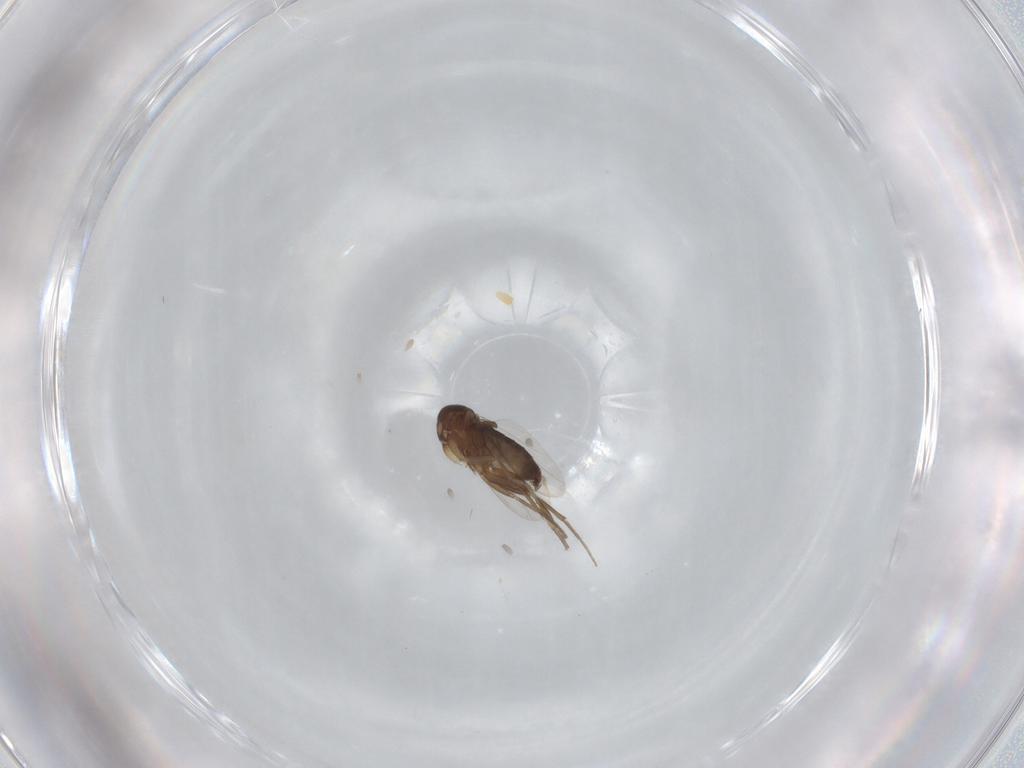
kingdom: Animalia
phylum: Arthropoda
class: Insecta
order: Diptera
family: Phoridae
